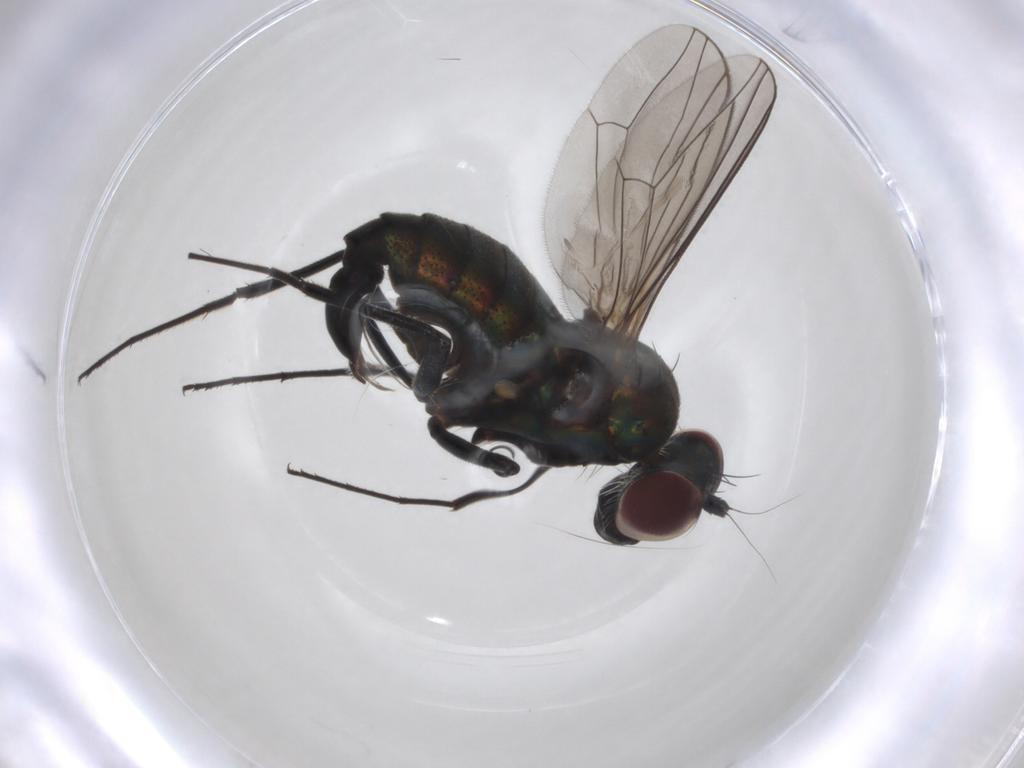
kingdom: Animalia
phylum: Arthropoda
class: Insecta
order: Diptera
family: Dolichopodidae
